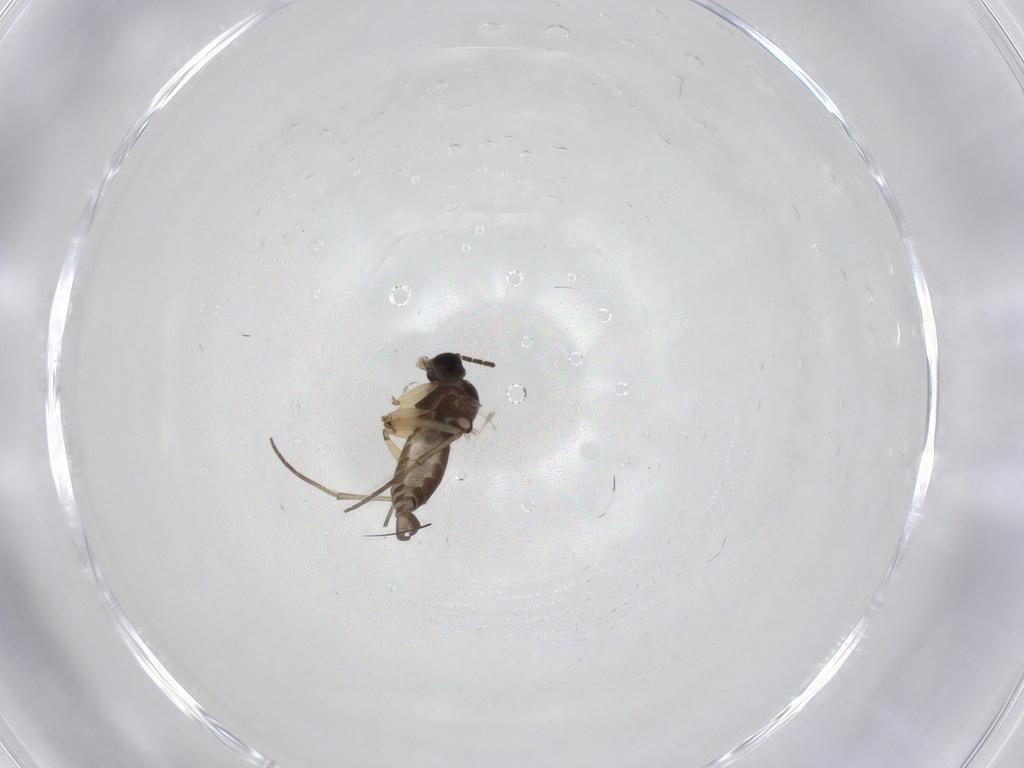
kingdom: Animalia
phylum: Arthropoda
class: Insecta
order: Diptera
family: Sciaridae
